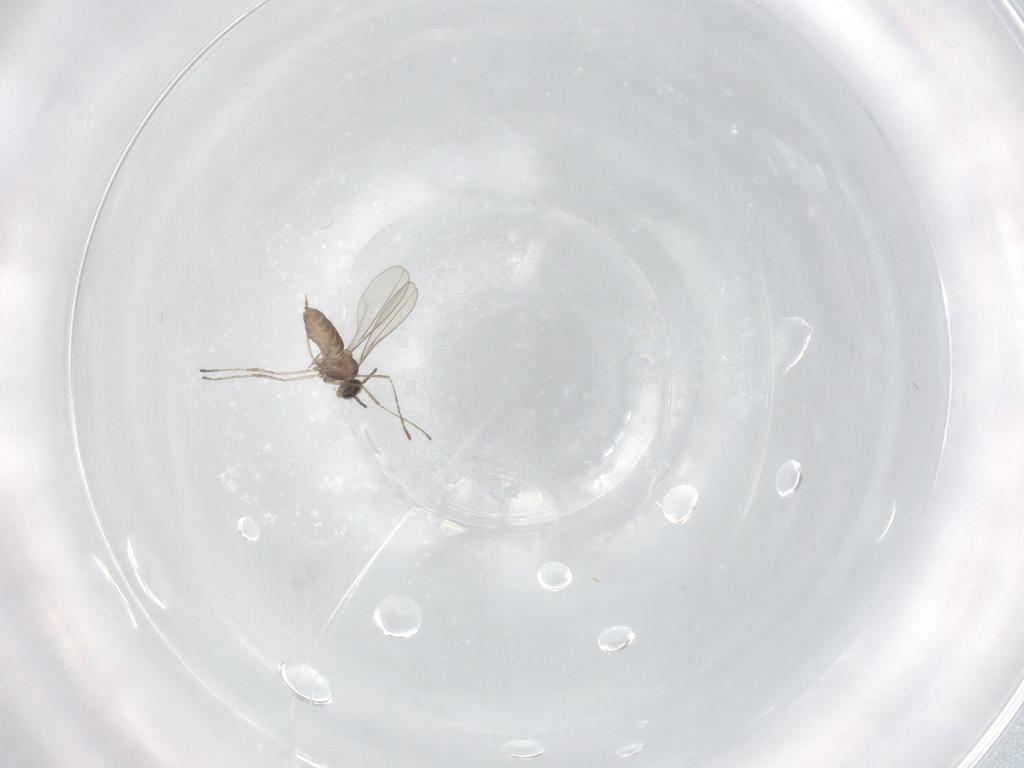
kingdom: Animalia
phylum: Arthropoda
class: Insecta
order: Diptera
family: Cecidomyiidae
